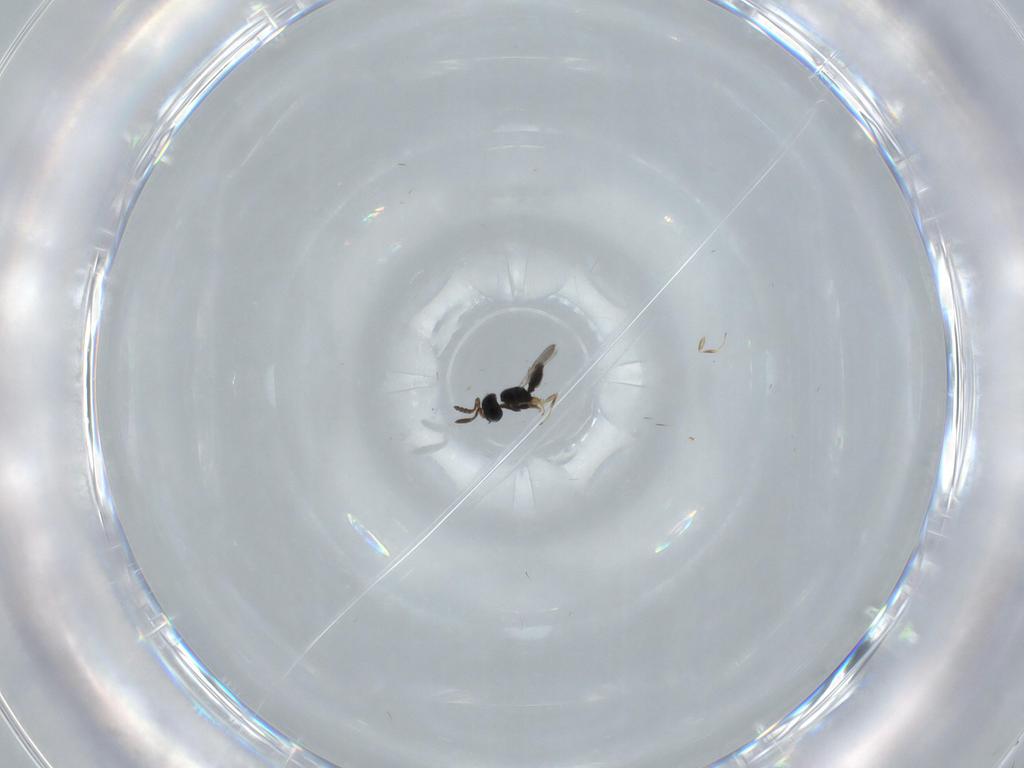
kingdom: Animalia
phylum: Arthropoda
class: Insecta
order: Hymenoptera
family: Scelionidae
